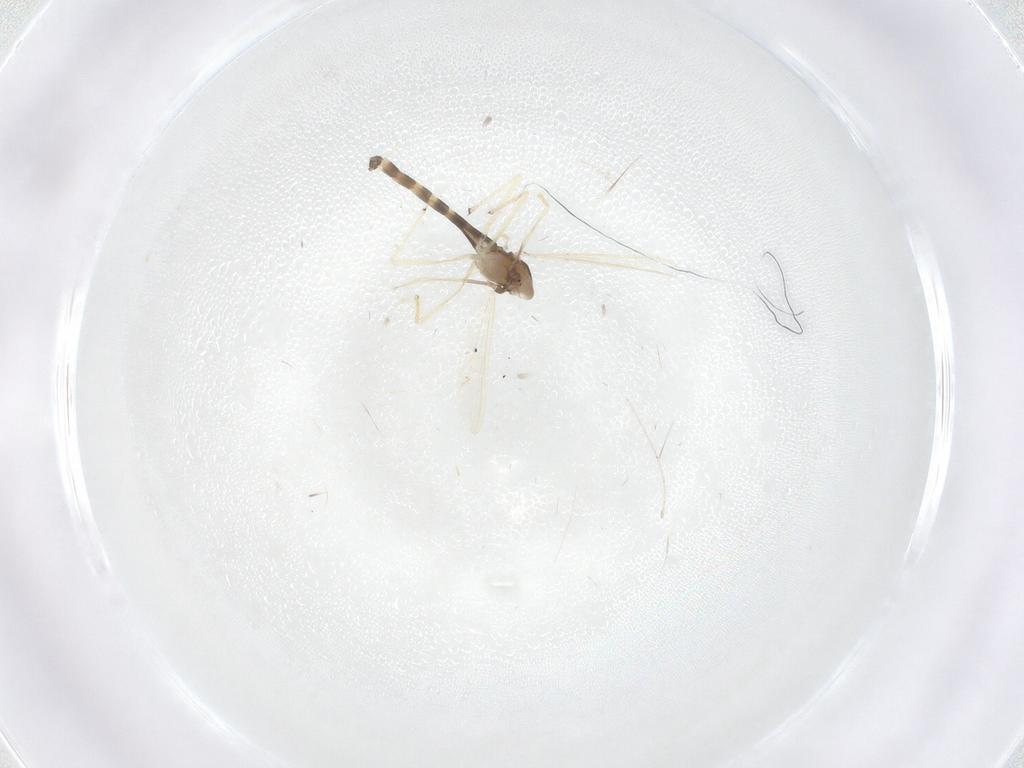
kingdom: Animalia
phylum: Arthropoda
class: Insecta
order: Diptera
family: Chironomidae
